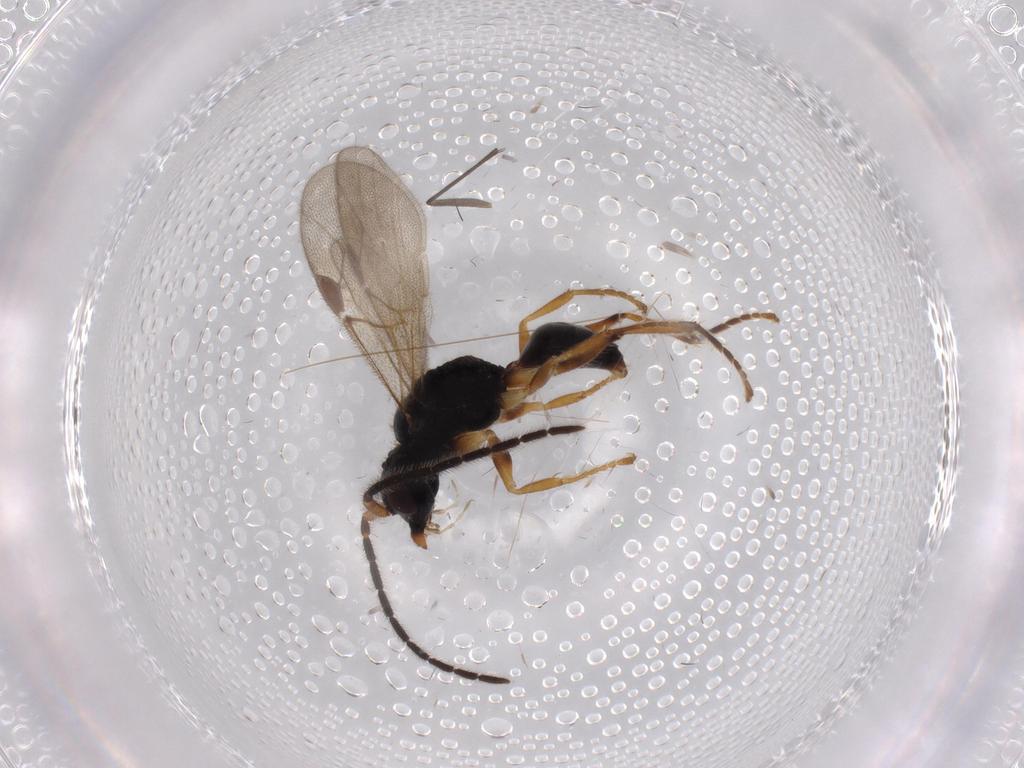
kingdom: Animalia
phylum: Arthropoda
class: Insecta
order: Hymenoptera
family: Dryinidae
